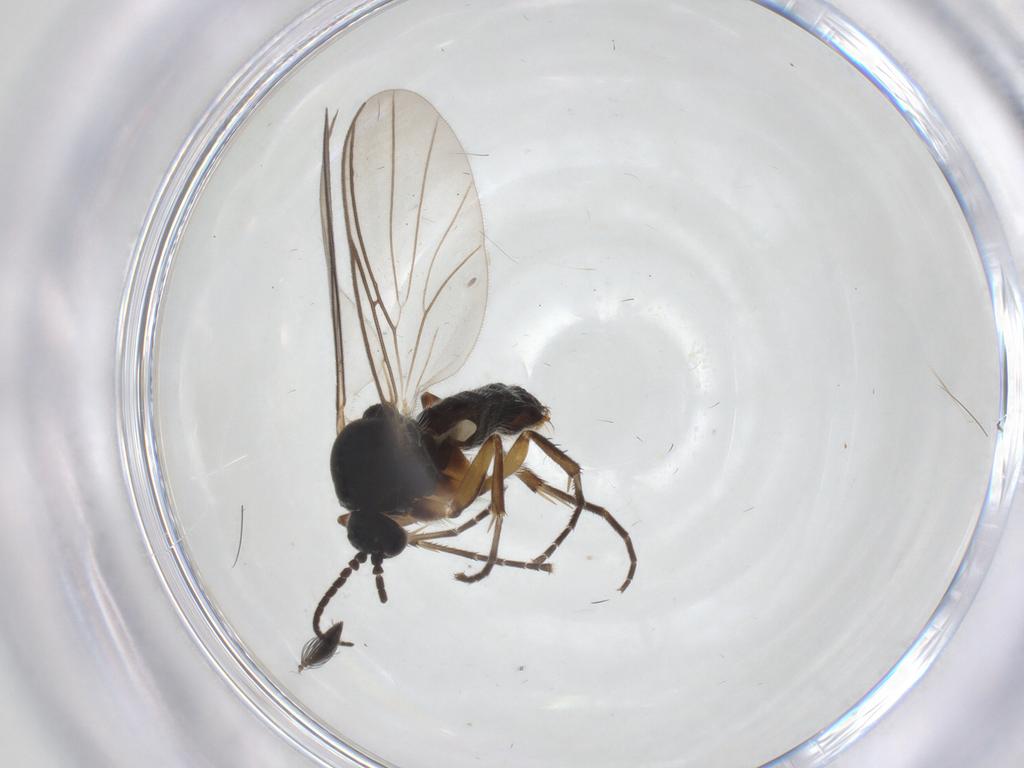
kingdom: Animalia
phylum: Arthropoda
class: Insecta
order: Diptera
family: Mycetophilidae
